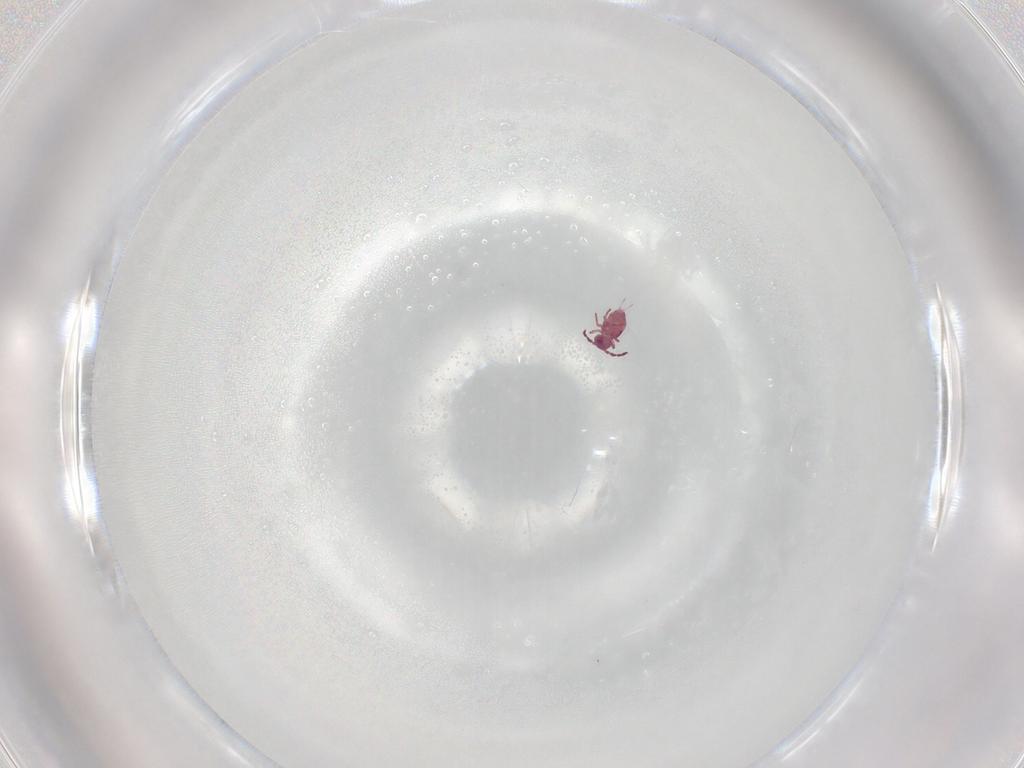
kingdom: Animalia
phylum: Arthropoda
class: Collembola
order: Symphypleona
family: Sminthurididae
